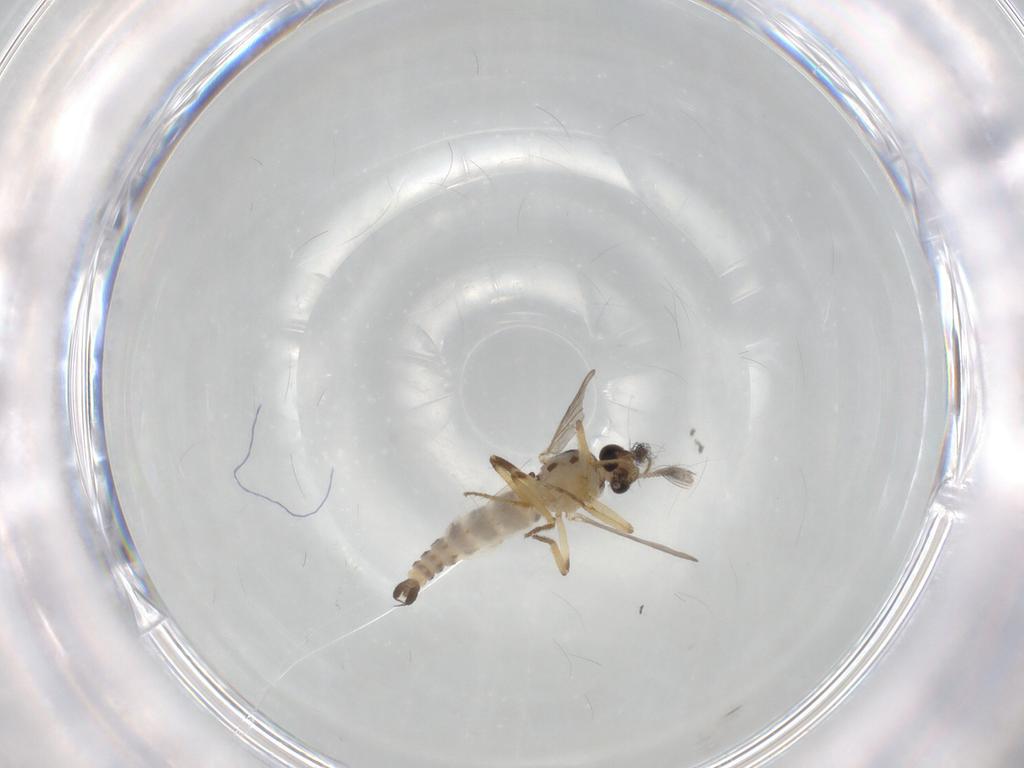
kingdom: Animalia
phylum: Arthropoda
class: Insecta
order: Diptera
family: Ceratopogonidae
